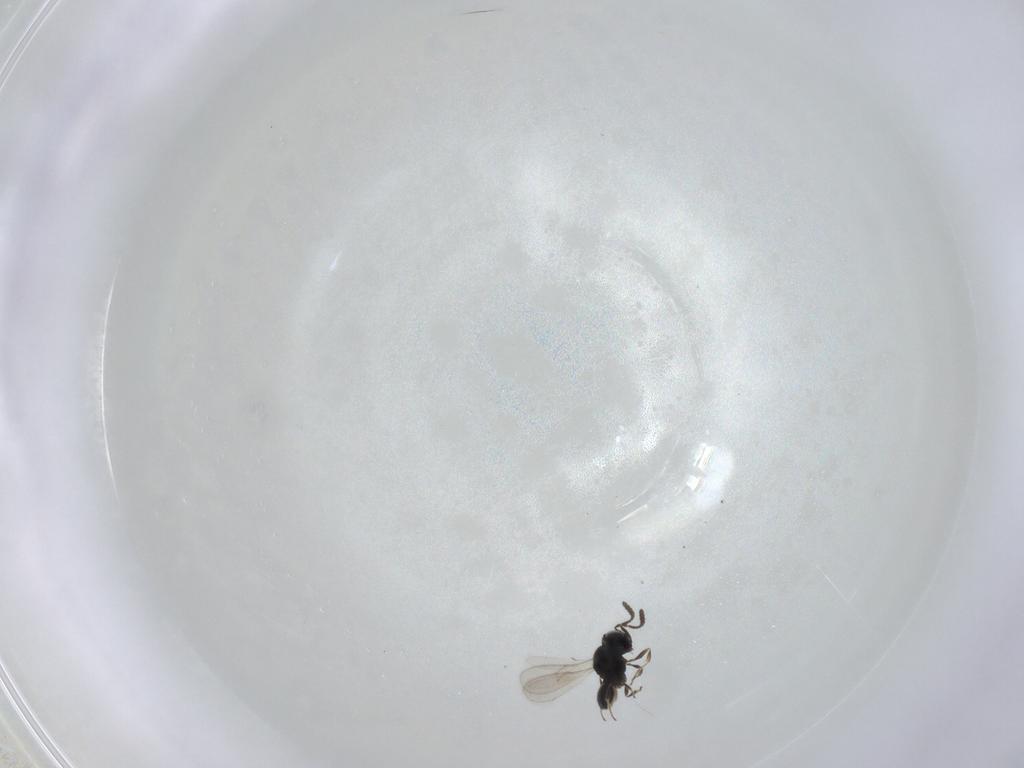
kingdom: Animalia
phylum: Arthropoda
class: Insecta
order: Hymenoptera
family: Scelionidae
